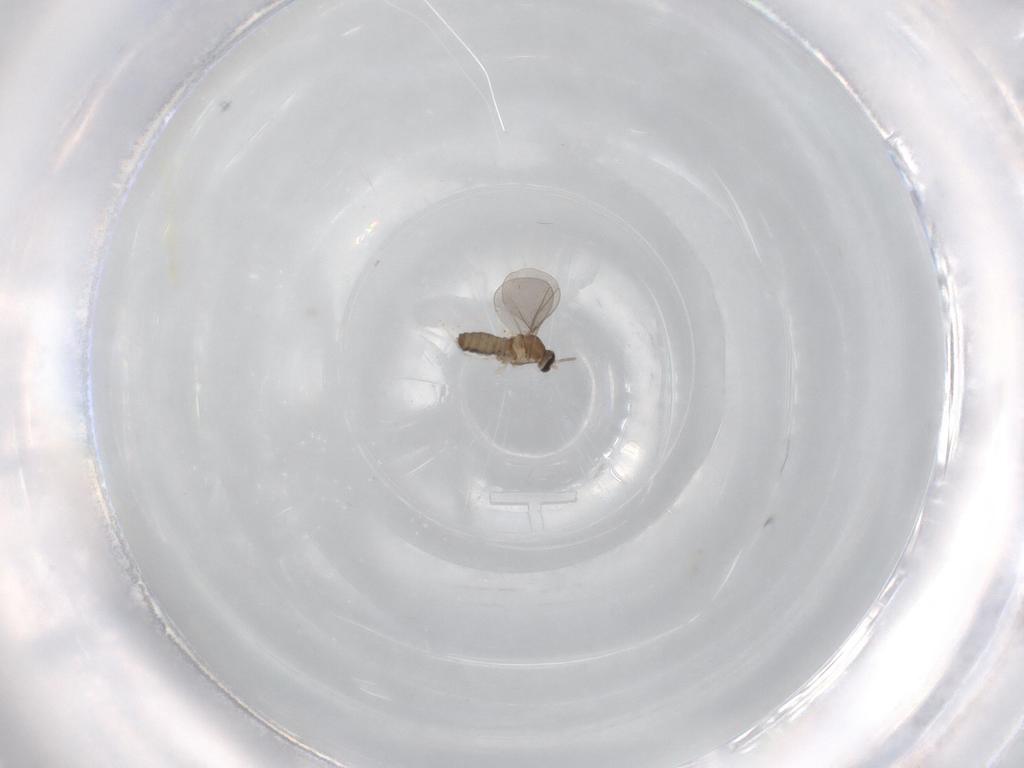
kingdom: Animalia
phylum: Arthropoda
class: Insecta
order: Diptera
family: Cecidomyiidae
